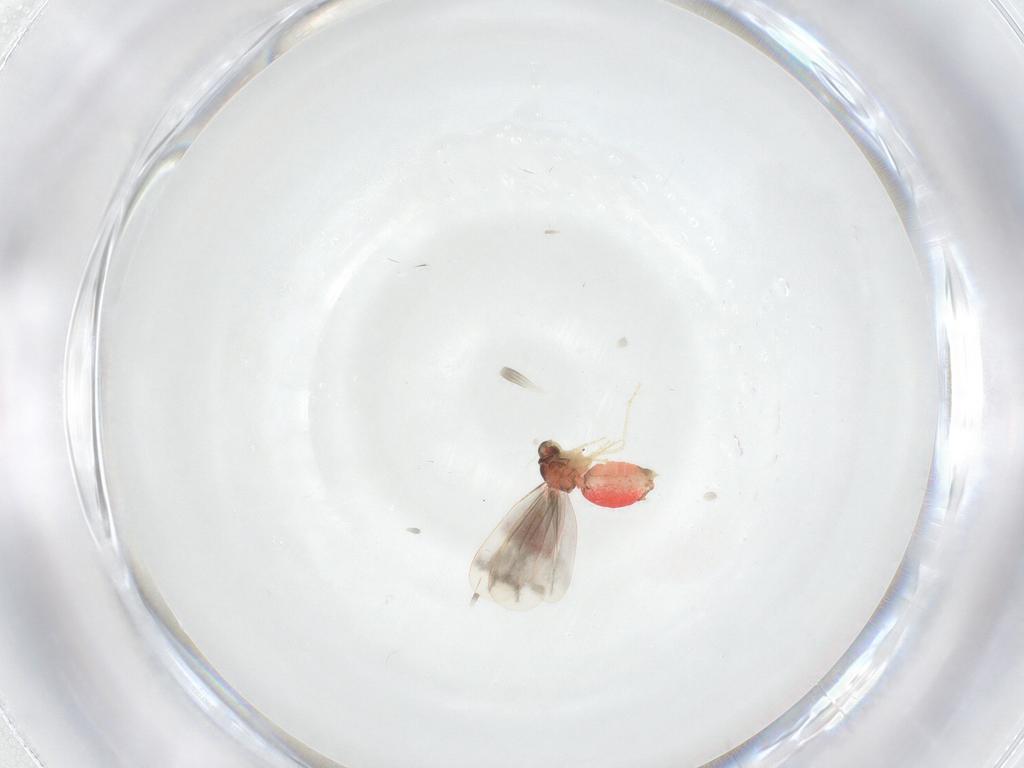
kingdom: Animalia
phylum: Arthropoda
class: Insecta
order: Hemiptera
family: Aleyrodidae
